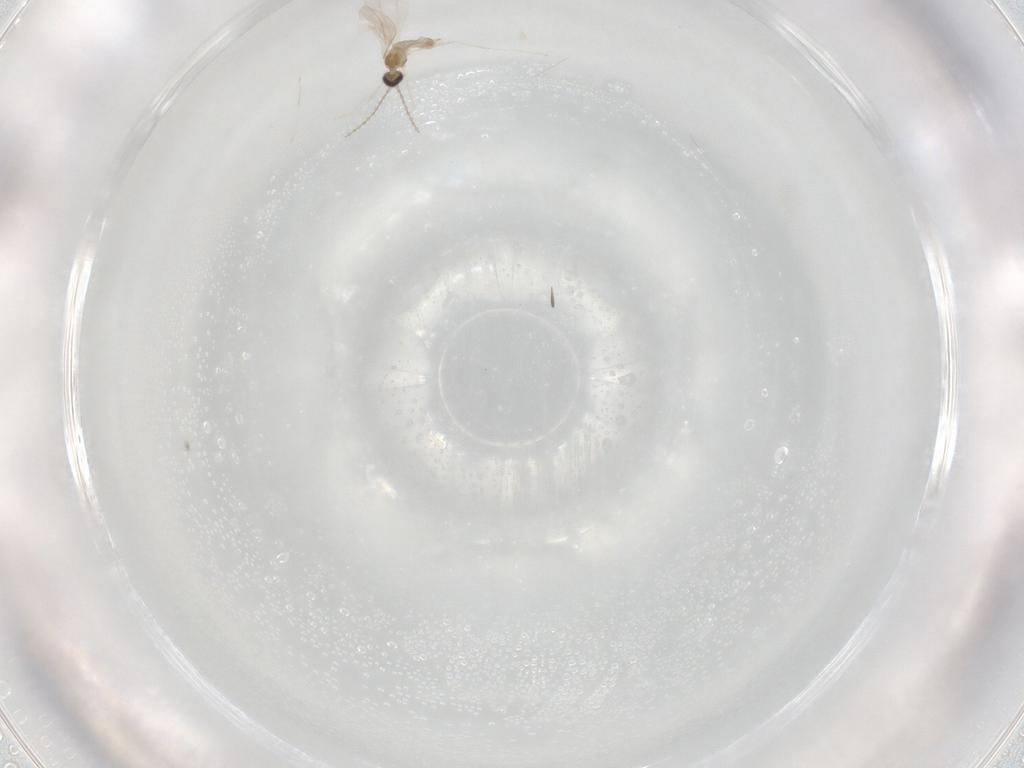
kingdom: Animalia
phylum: Arthropoda
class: Insecta
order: Diptera
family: Cecidomyiidae
